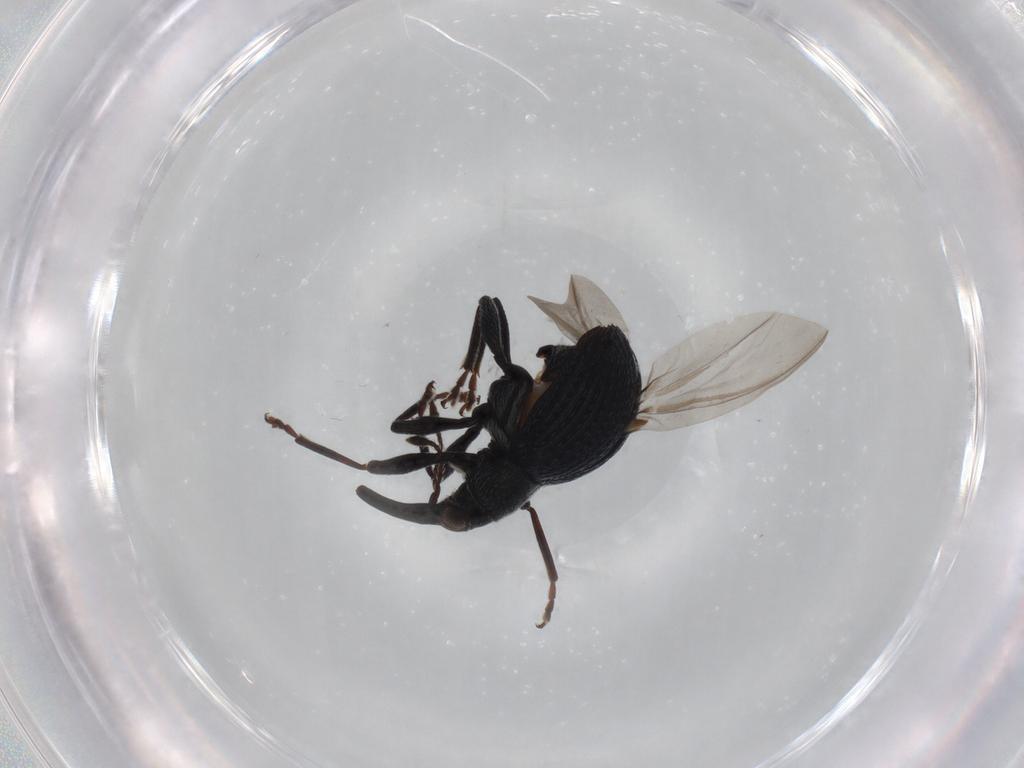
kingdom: Animalia
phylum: Arthropoda
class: Insecta
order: Coleoptera
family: Brentidae
